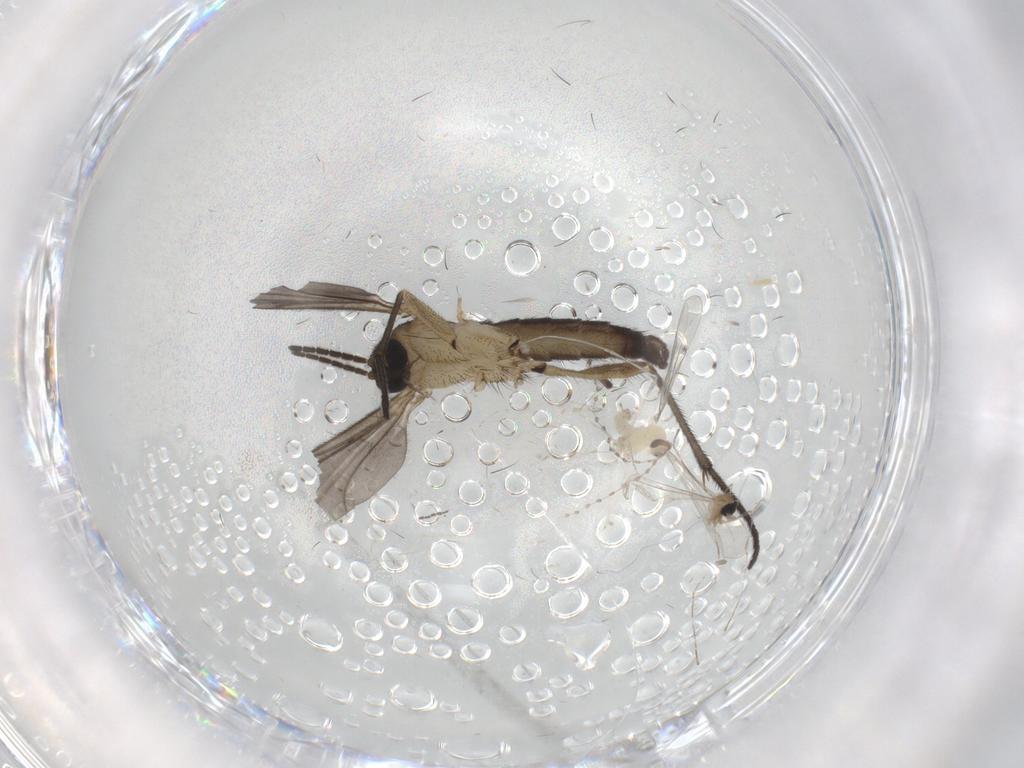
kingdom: Animalia
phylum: Arthropoda
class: Insecta
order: Diptera
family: Sciaridae
